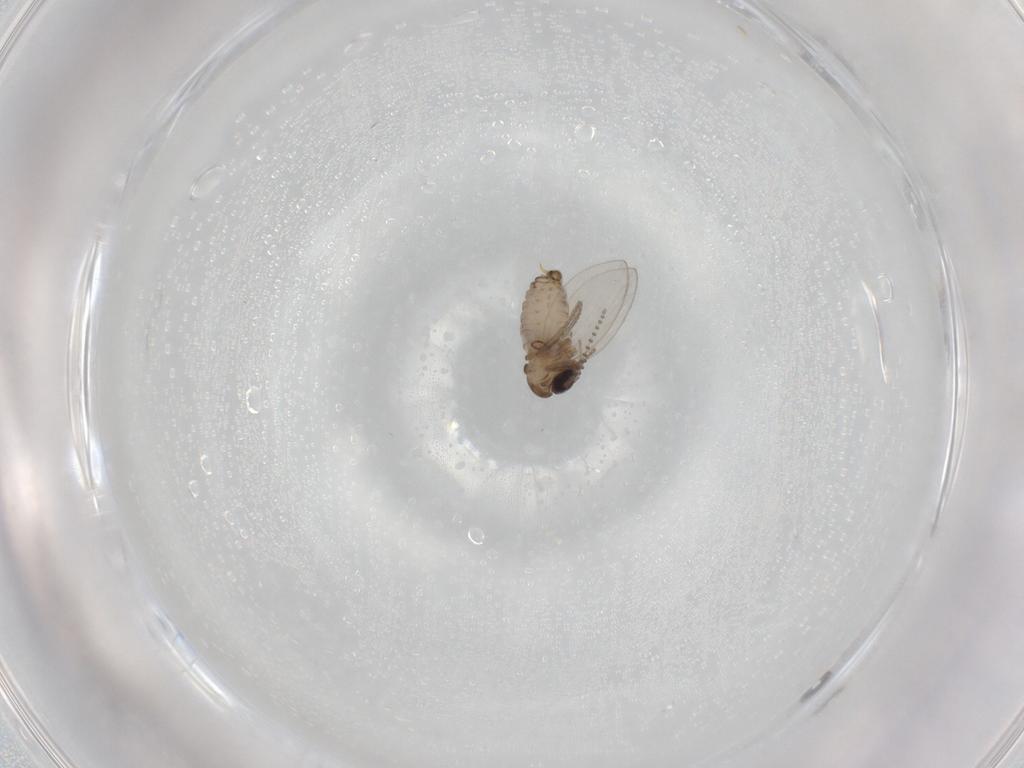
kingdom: Animalia
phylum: Arthropoda
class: Insecta
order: Diptera
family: Psychodidae
